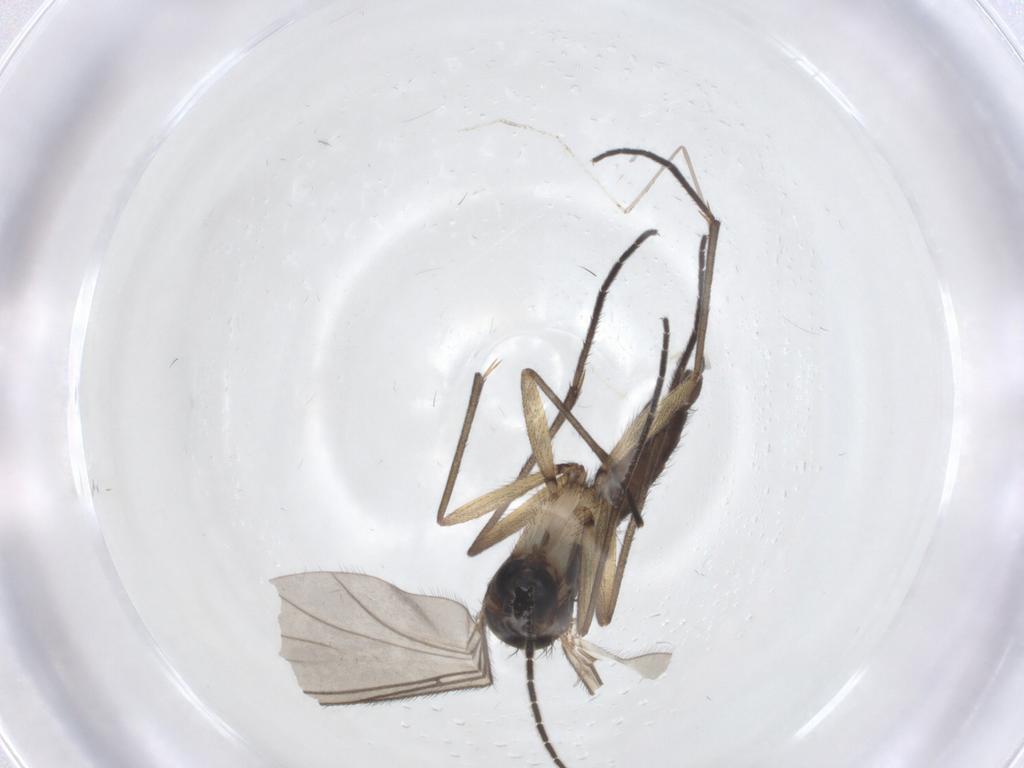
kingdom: Animalia
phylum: Arthropoda
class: Insecta
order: Diptera
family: Sciaridae
